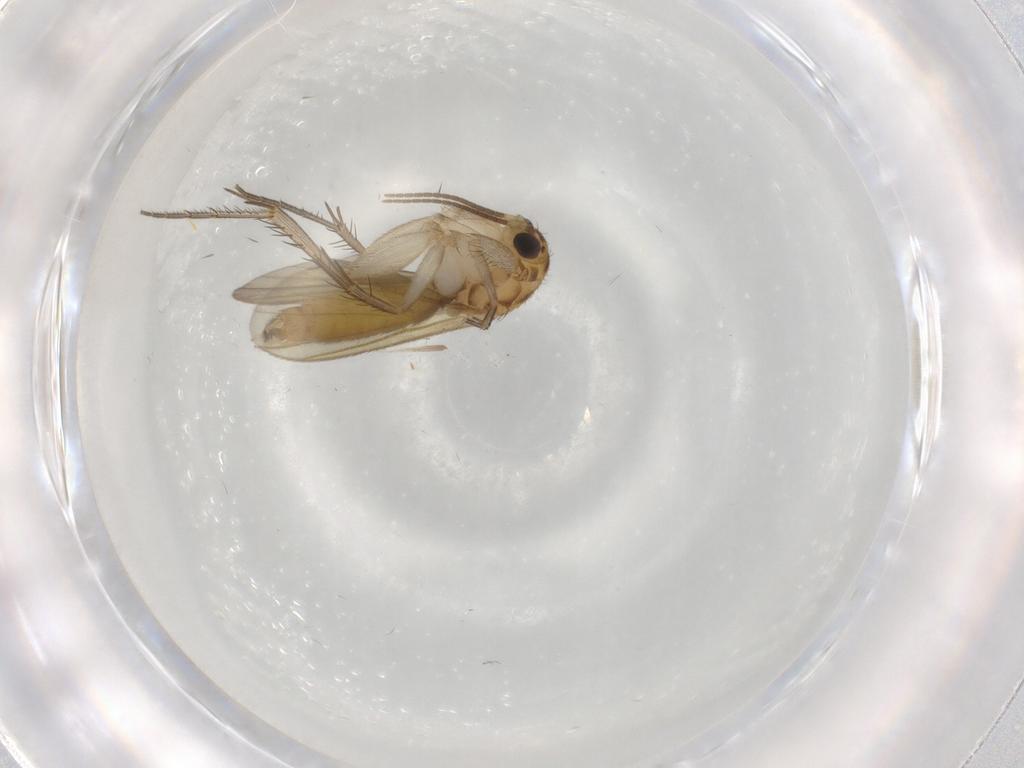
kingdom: Animalia
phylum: Arthropoda
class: Insecta
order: Diptera
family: Mycetophilidae
